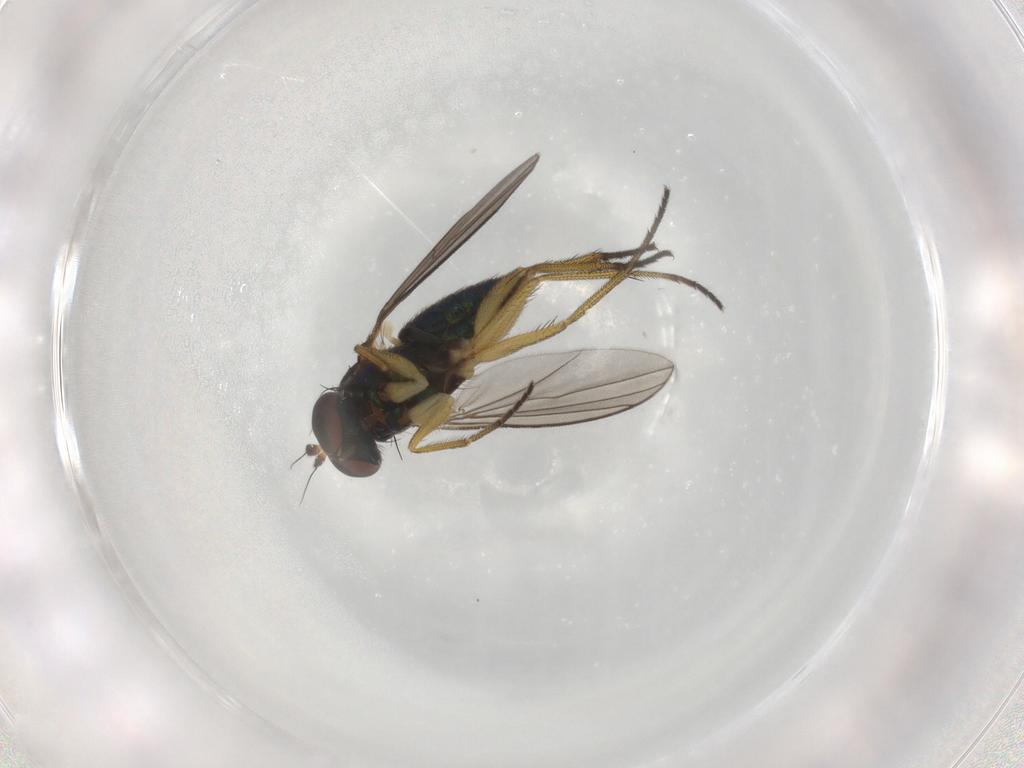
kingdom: Animalia
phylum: Arthropoda
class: Insecta
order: Diptera
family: Dolichopodidae
